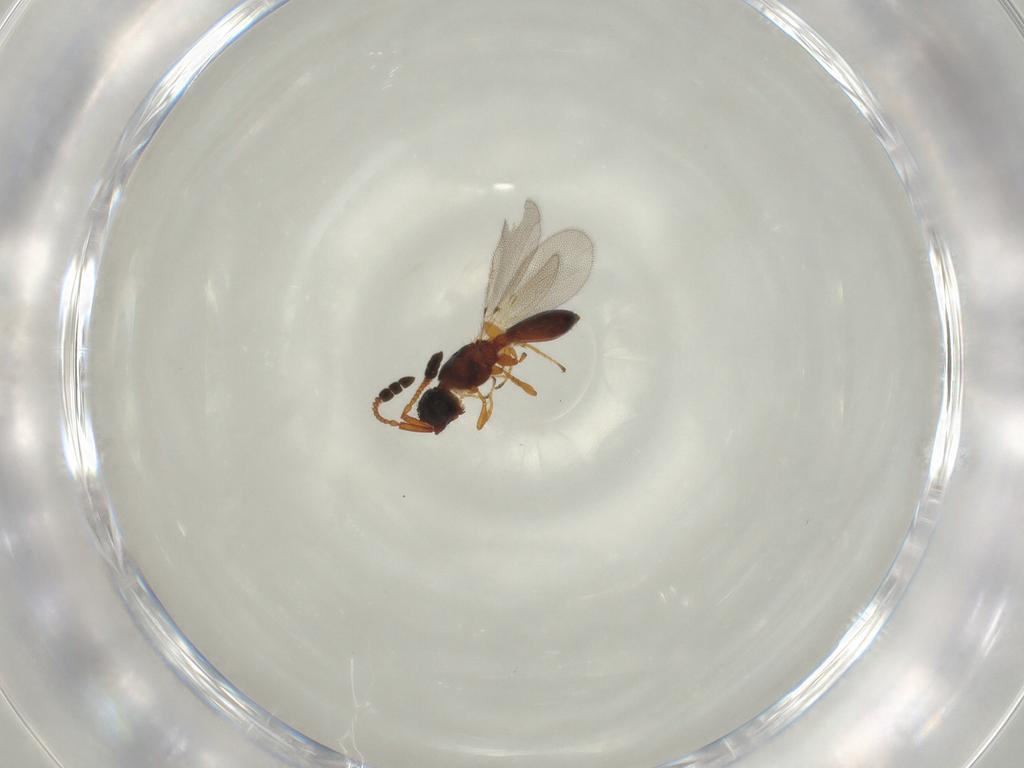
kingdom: Animalia
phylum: Arthropoda
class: Insecta
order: Hymenoptera
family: Diapriidae
